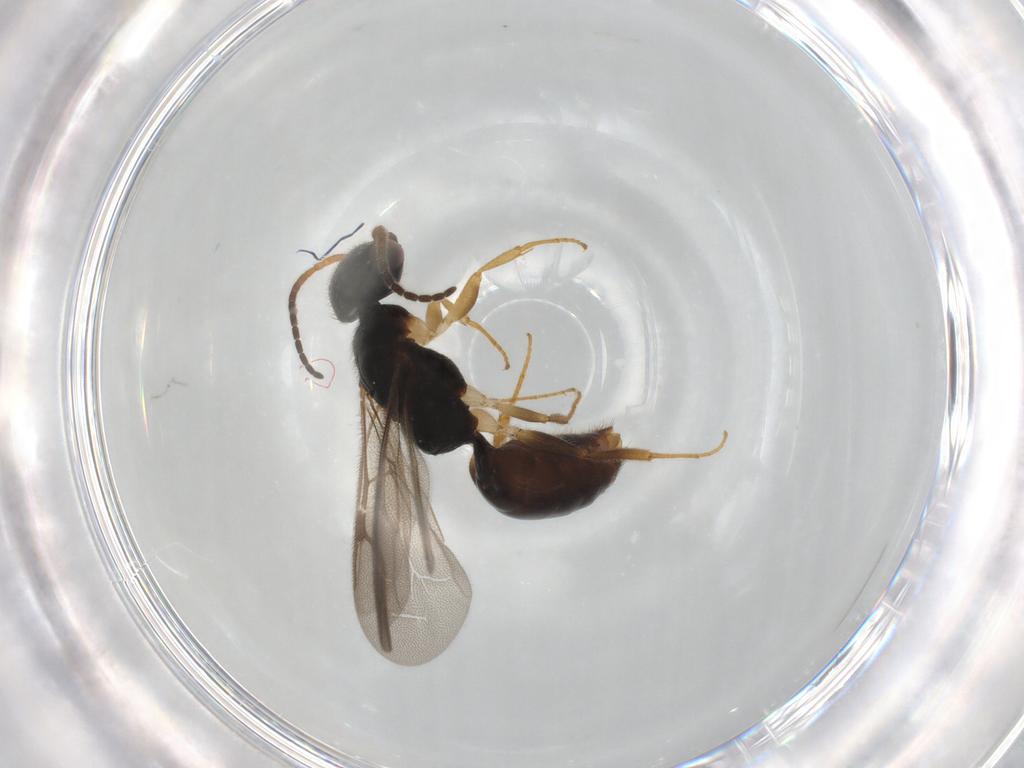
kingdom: Animalia
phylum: Arthropoda
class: Insecta
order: Hymenoptera
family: Bethylidae
